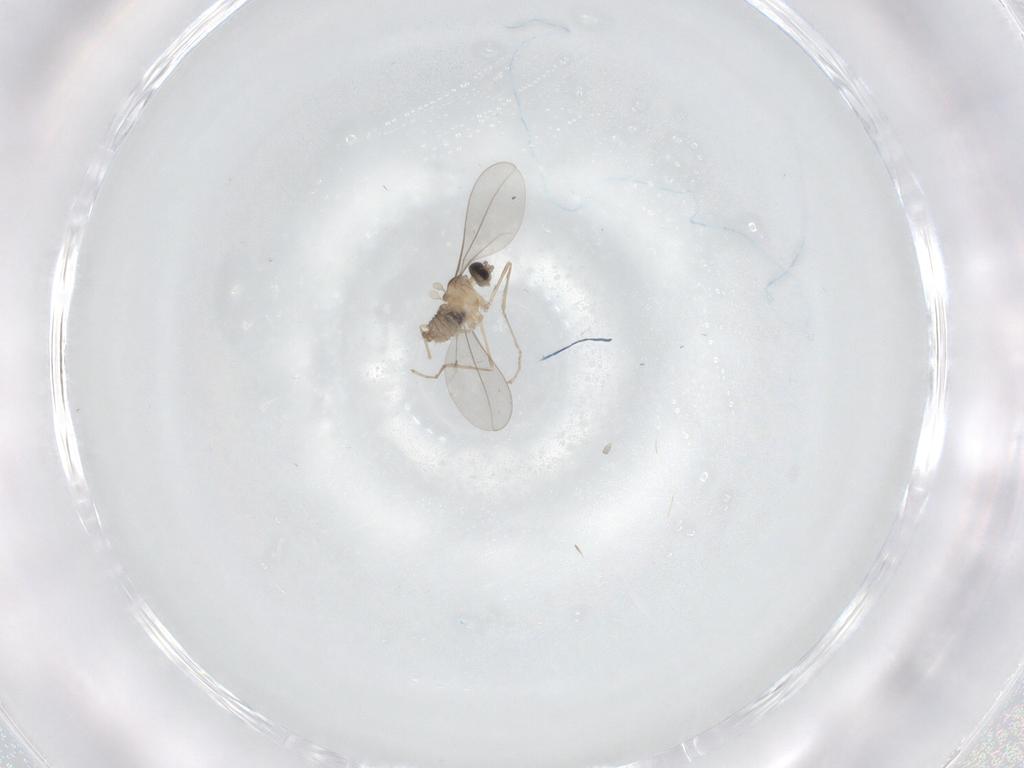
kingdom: Animalia
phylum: Arthropoda
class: Insecta
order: Diptera
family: Cecidomyiidae
